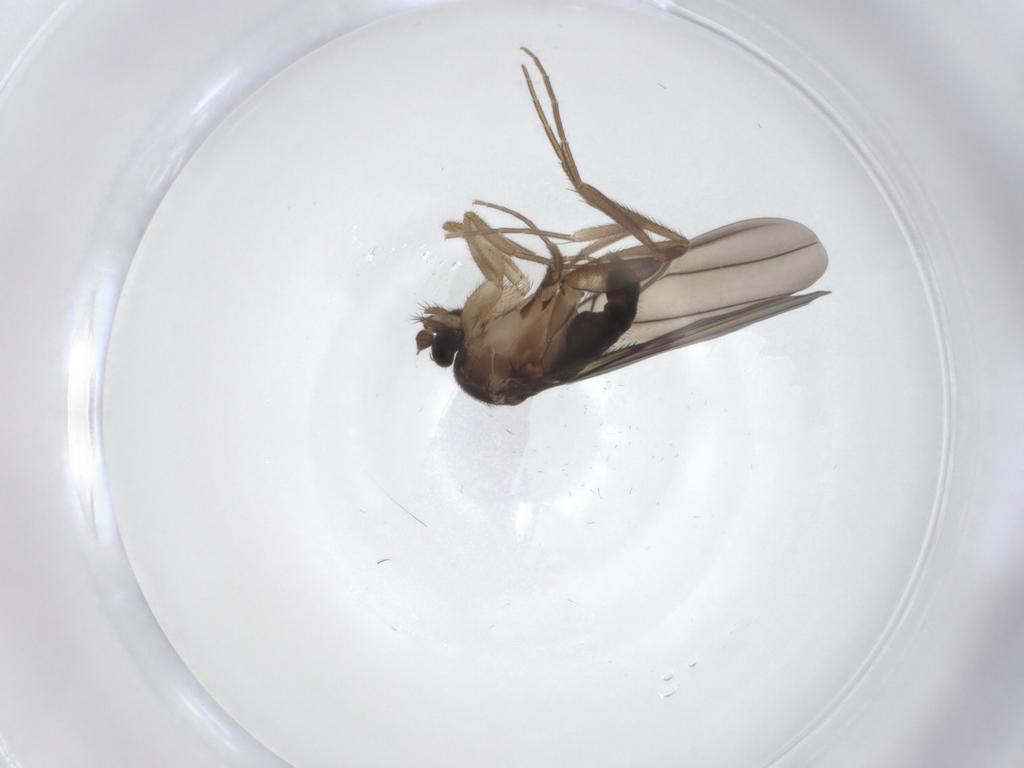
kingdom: Animalia
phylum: Arthropoda
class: Insecta
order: Diptera
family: Phoridae
